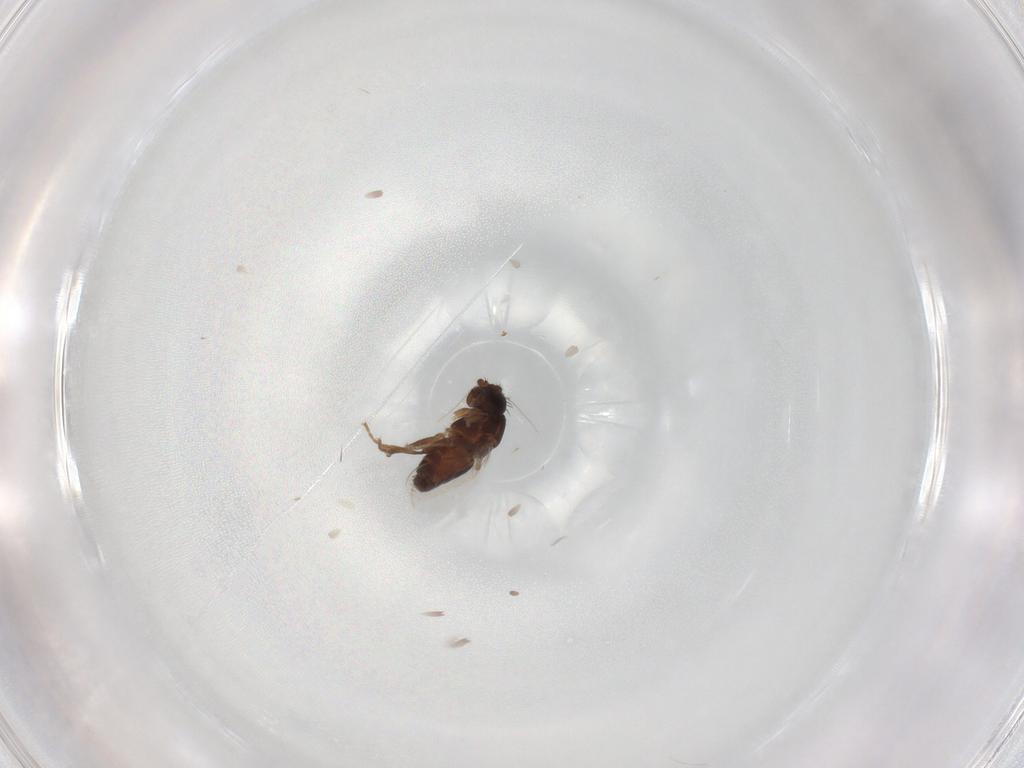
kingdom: Animalia
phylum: Arthropoda
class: Insecta
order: Diptera
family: Sphaeroceridae
